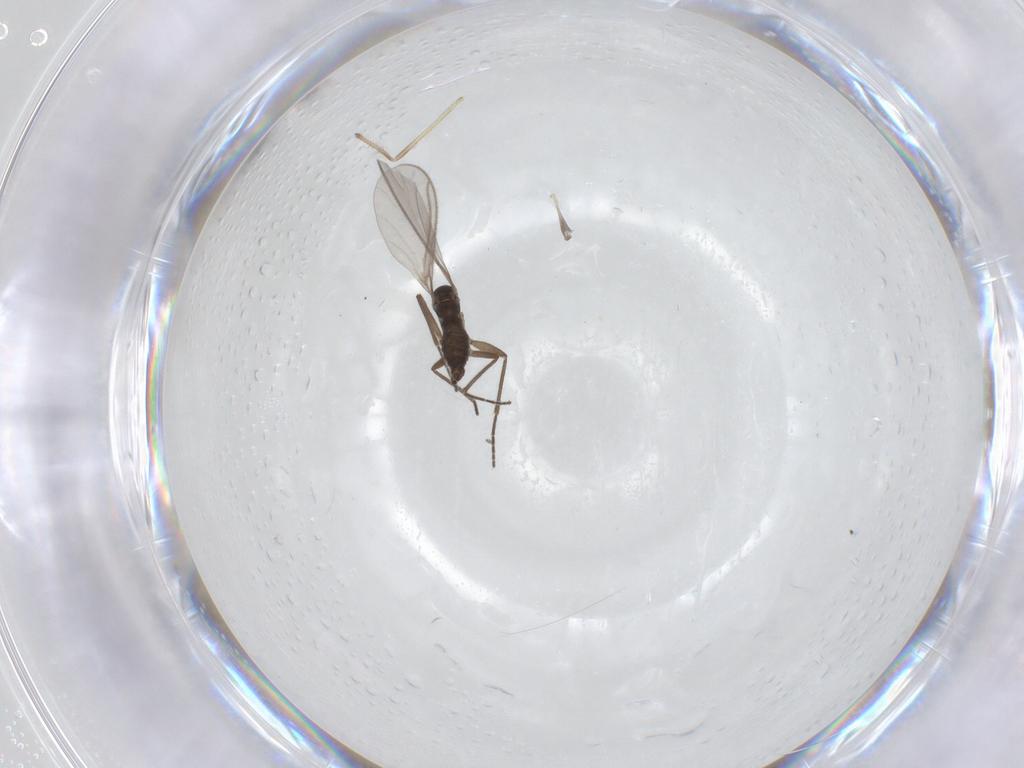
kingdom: Animalia
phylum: Arthropoda
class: Insecta
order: Diptera
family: Sciaridae
